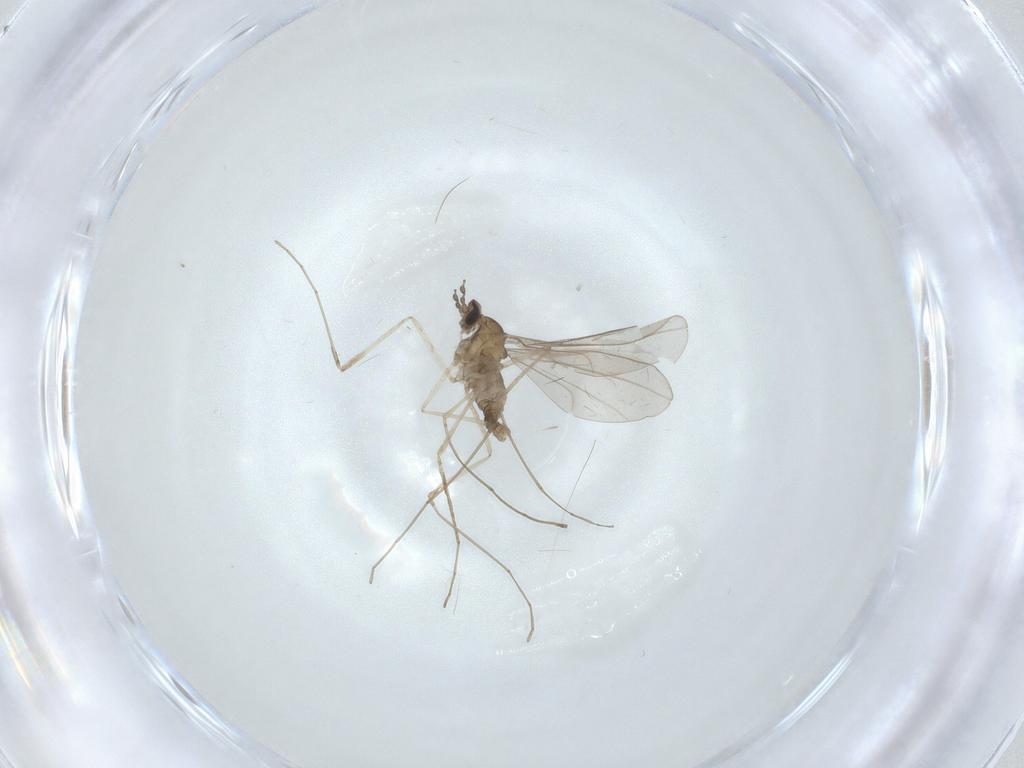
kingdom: Animalia
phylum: Arthropoda
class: Insecta
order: Diptera
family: Cecidomyiidae
